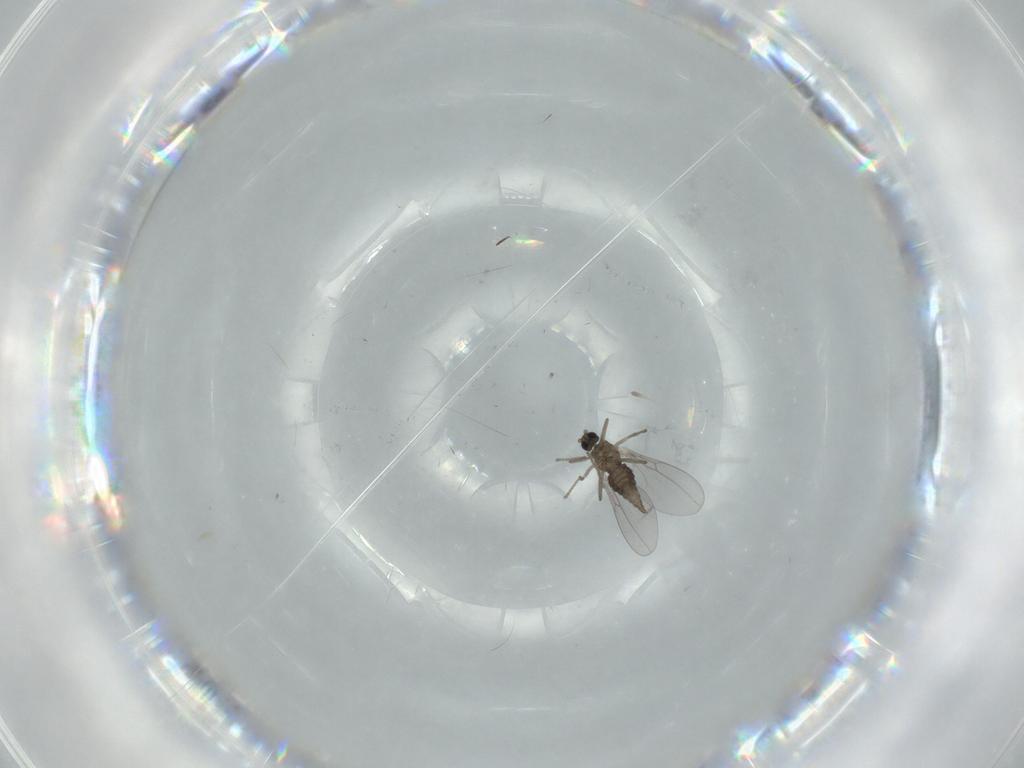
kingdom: Animalia
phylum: Arthropoda
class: Insecta
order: Diptera
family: Cecidomyiidae
